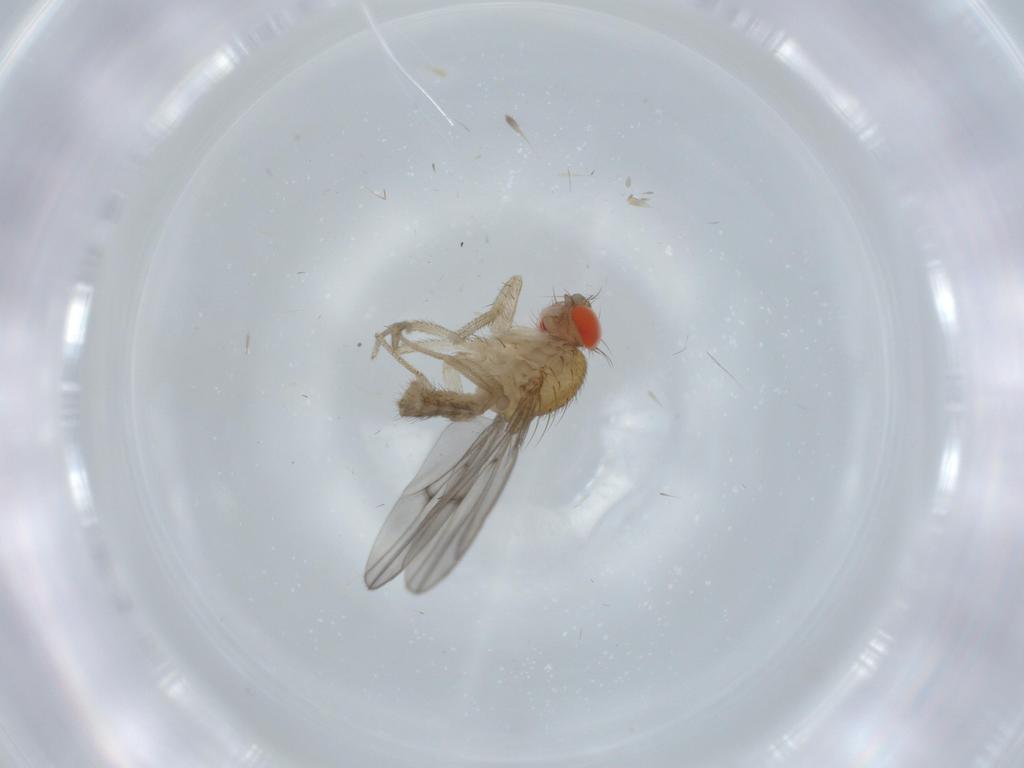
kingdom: Animalia
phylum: Arthropoda
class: Insecta
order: Diptera
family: Drosophilidae
